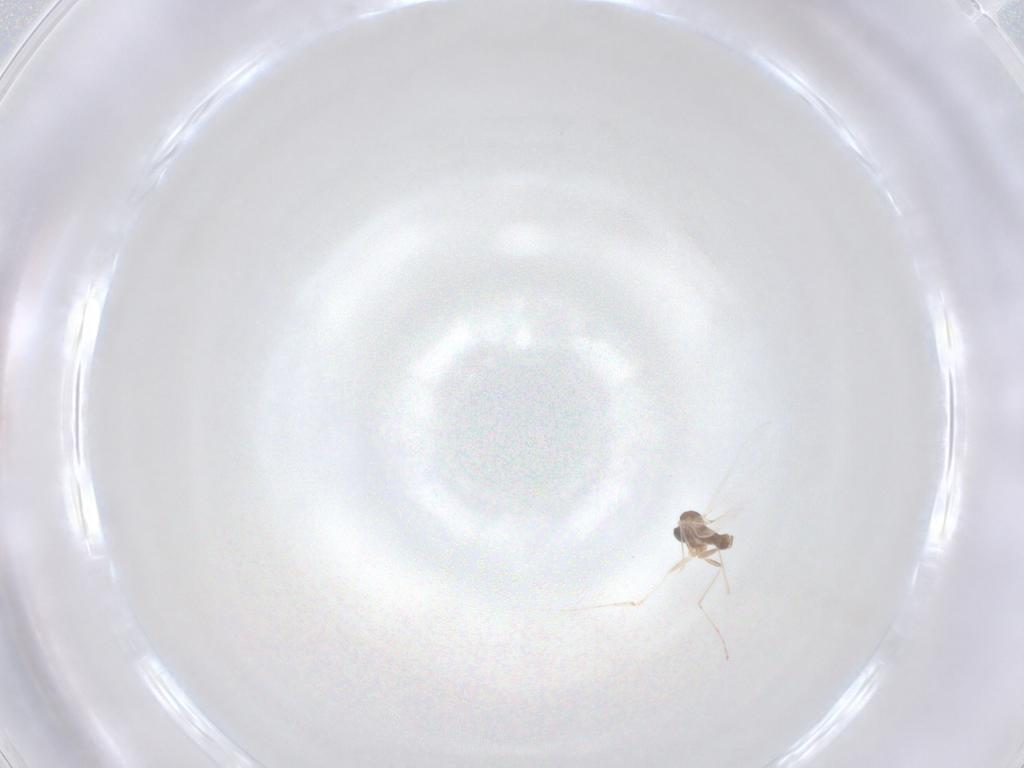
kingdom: Animalia
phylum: Arthropoda
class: Insecta
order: Diptera
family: Cecidomyiidae
